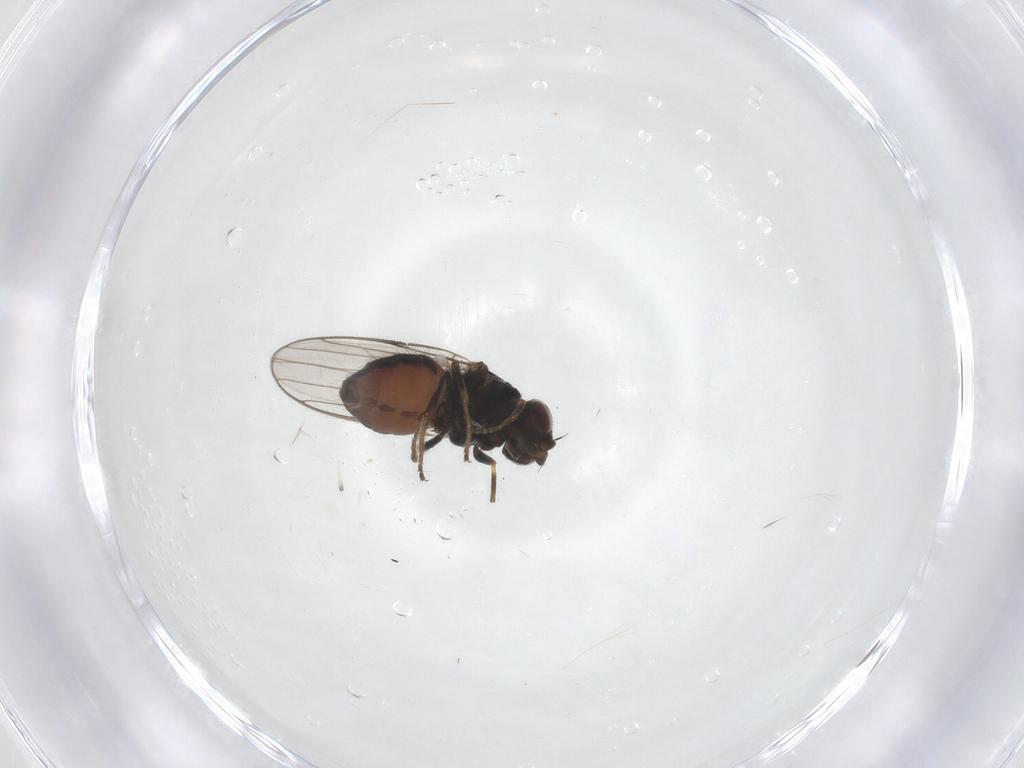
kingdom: Animalia
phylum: Arthropoda
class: Insecta
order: Diptera
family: Chloropidae
